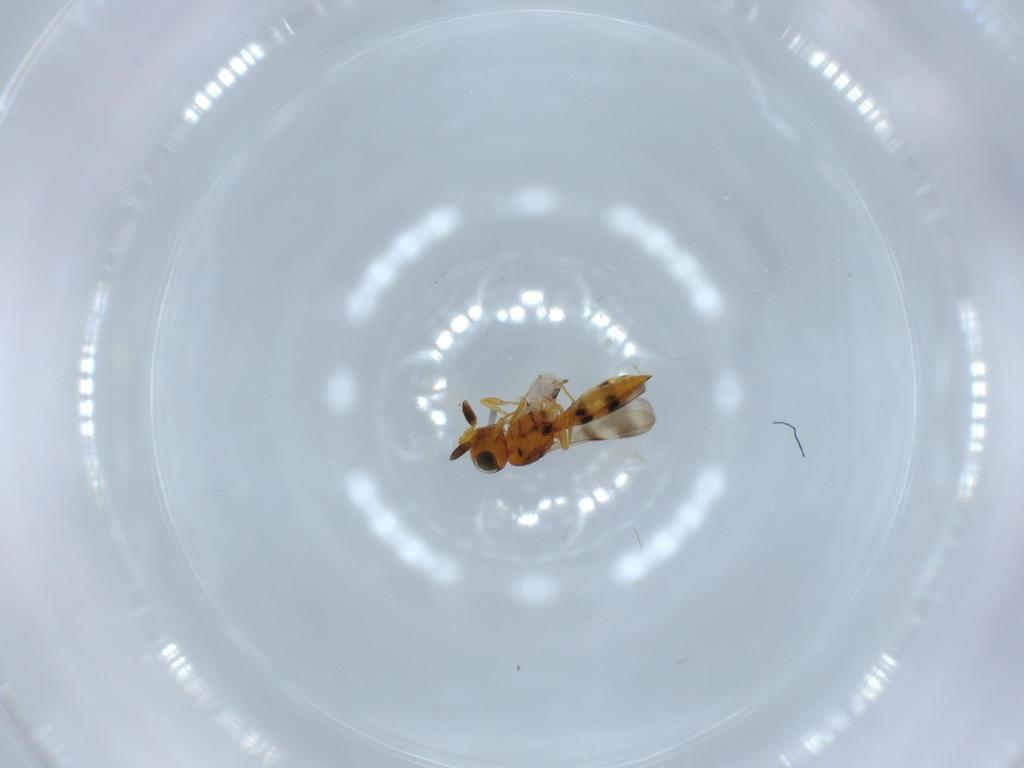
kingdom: Animalia
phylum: Arthropoda
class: Insecta
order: Hymenoptera
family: Scelionidae
